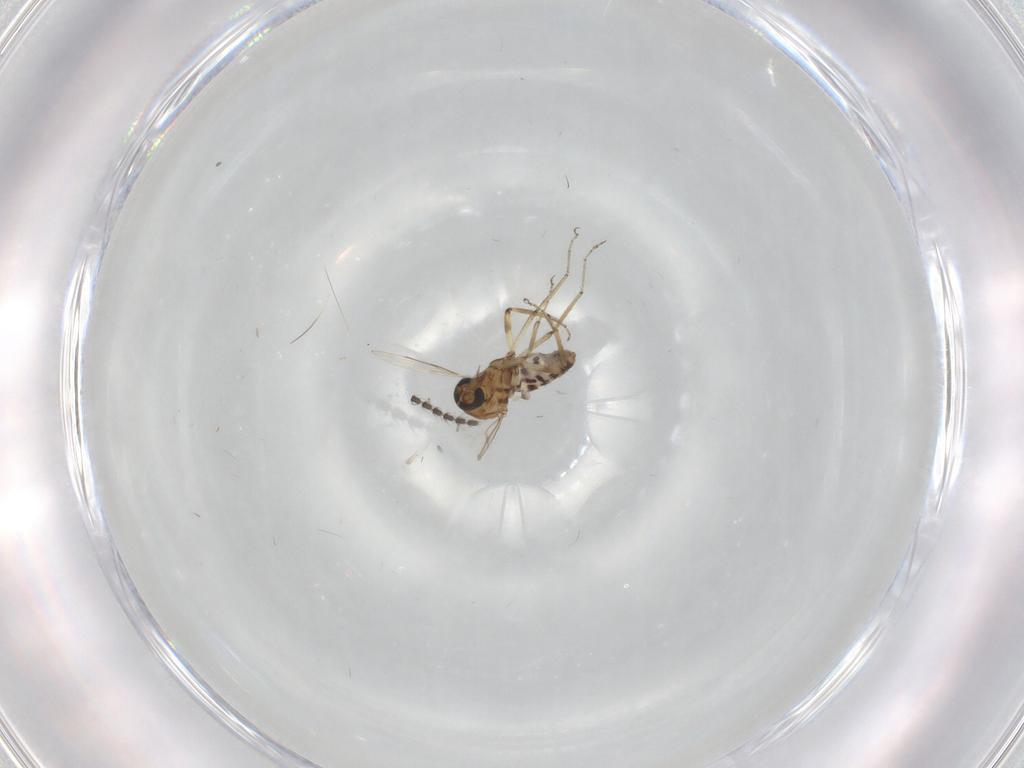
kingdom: Animalia
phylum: Arthropoda
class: Insecta
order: Diptera
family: Ceratopogonidae
